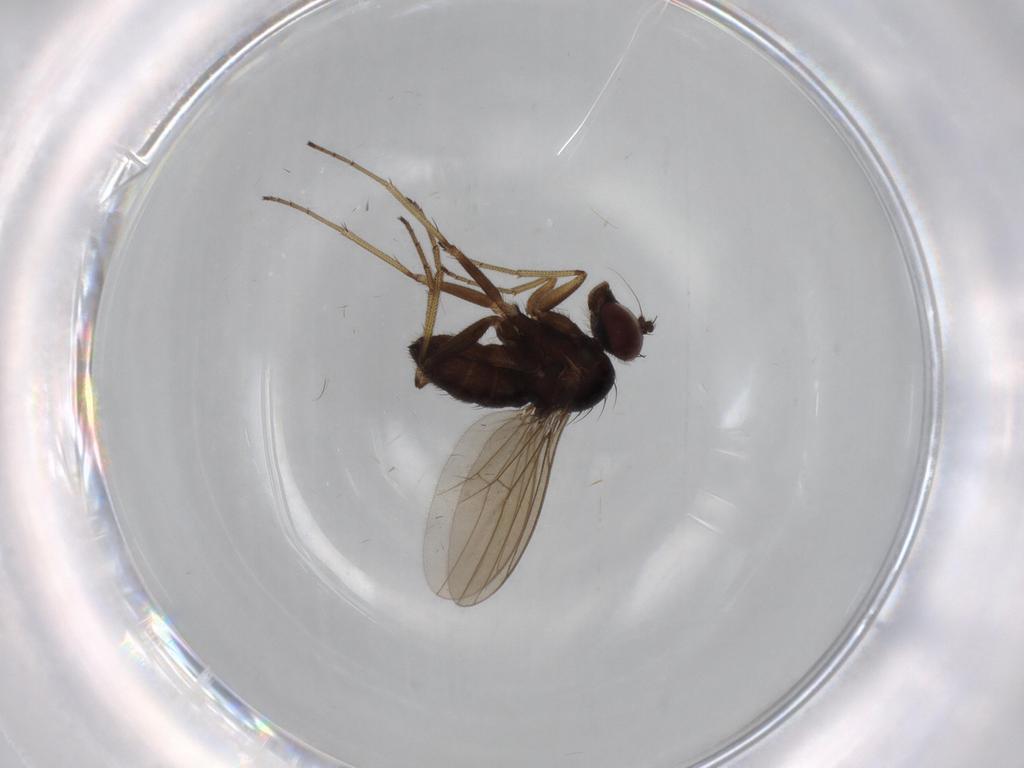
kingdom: Animalia
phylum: Arthropoda
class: Insecta
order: Diptera
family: Dolichopodidae
